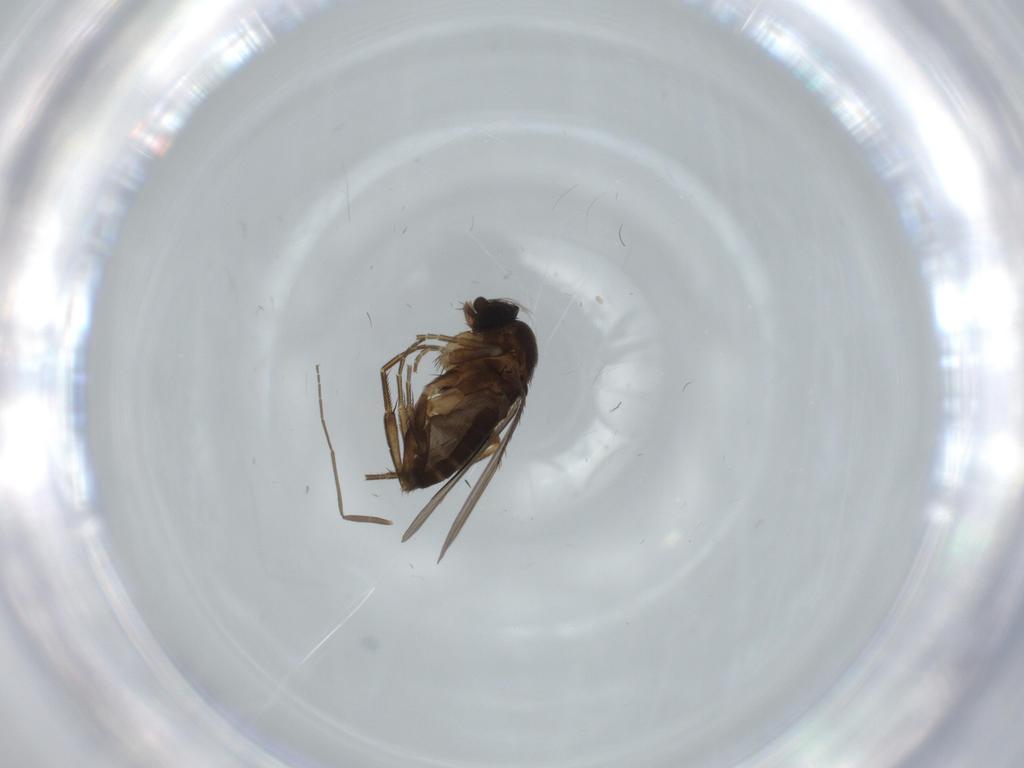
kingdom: Animalia
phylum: Arthropoda
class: Insecta
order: Diptera
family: Phoridae
